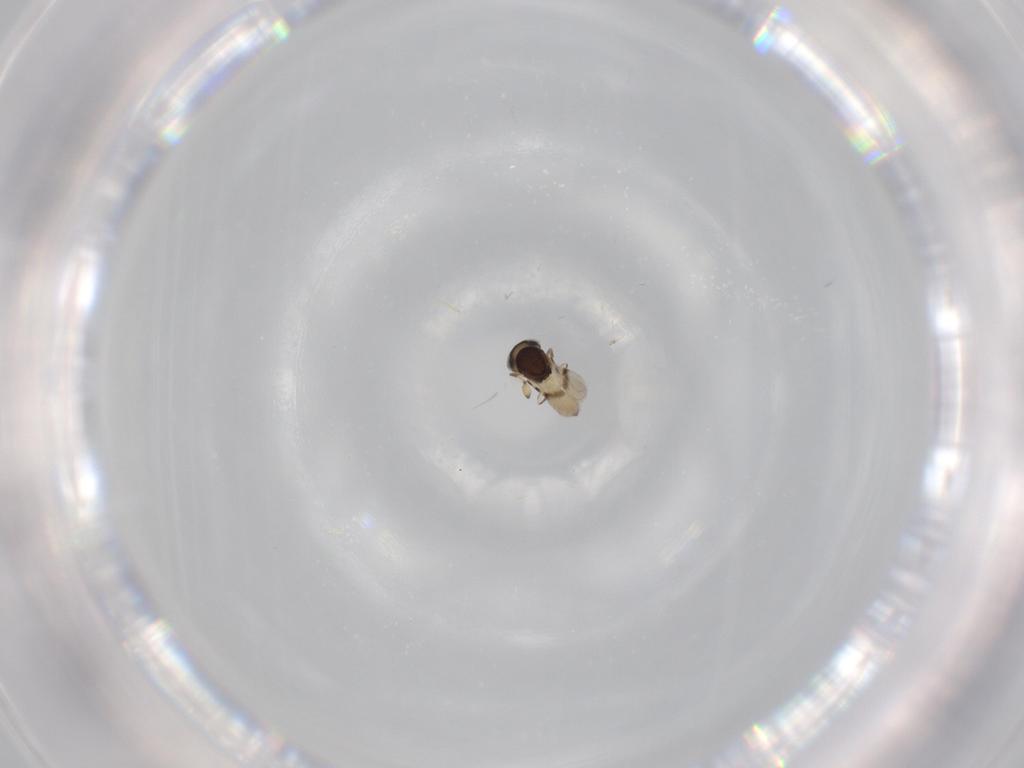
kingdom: Animalia
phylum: Arthropoda
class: Insecta
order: Hymenoptera
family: Scelionidae
